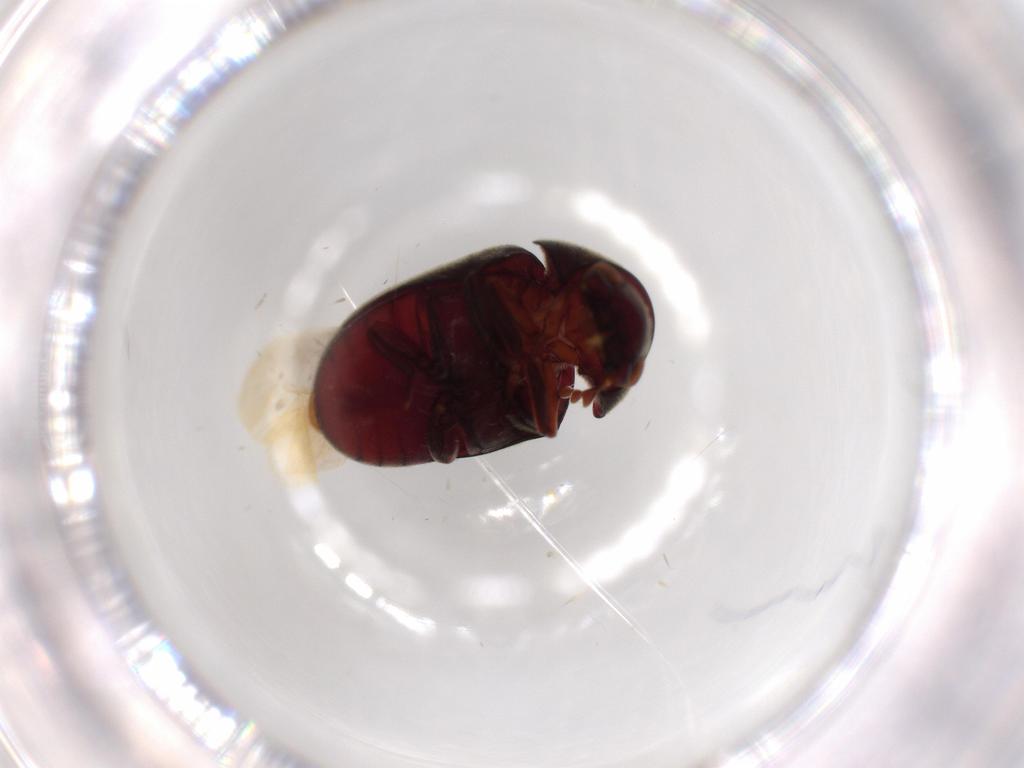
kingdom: Animalia
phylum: Arthropoda
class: Insecta
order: Coleoptera
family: Ptinidae
